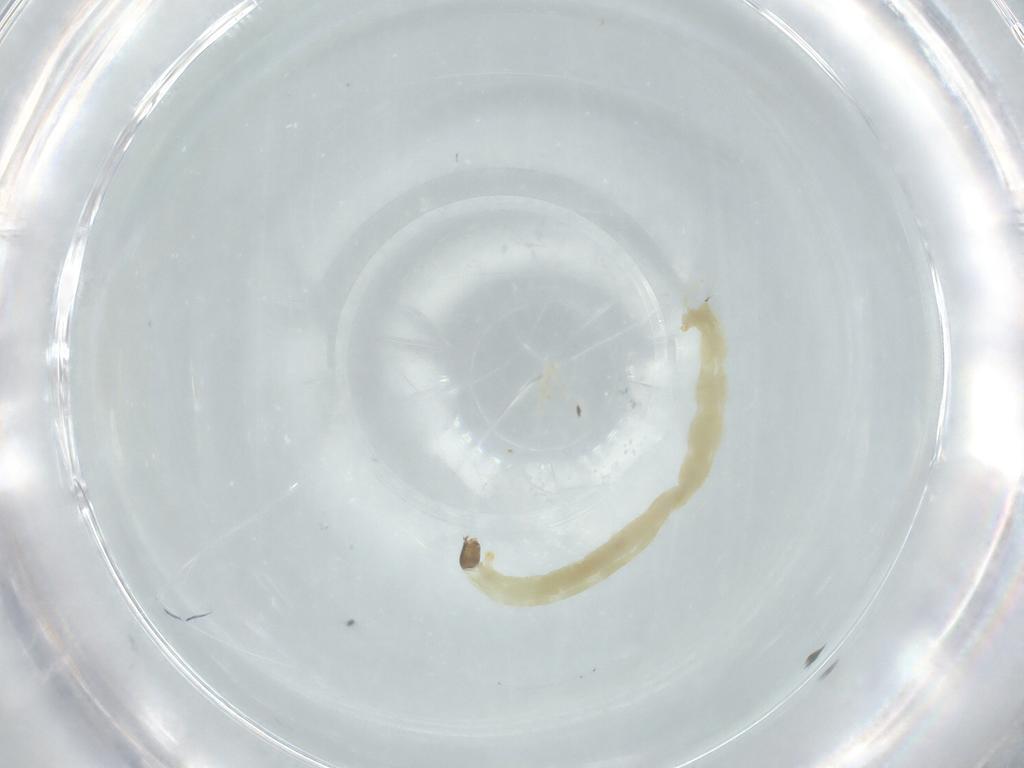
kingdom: Animalia
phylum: Arthropoda
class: Insecta
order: Diptera
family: Chironomidae
